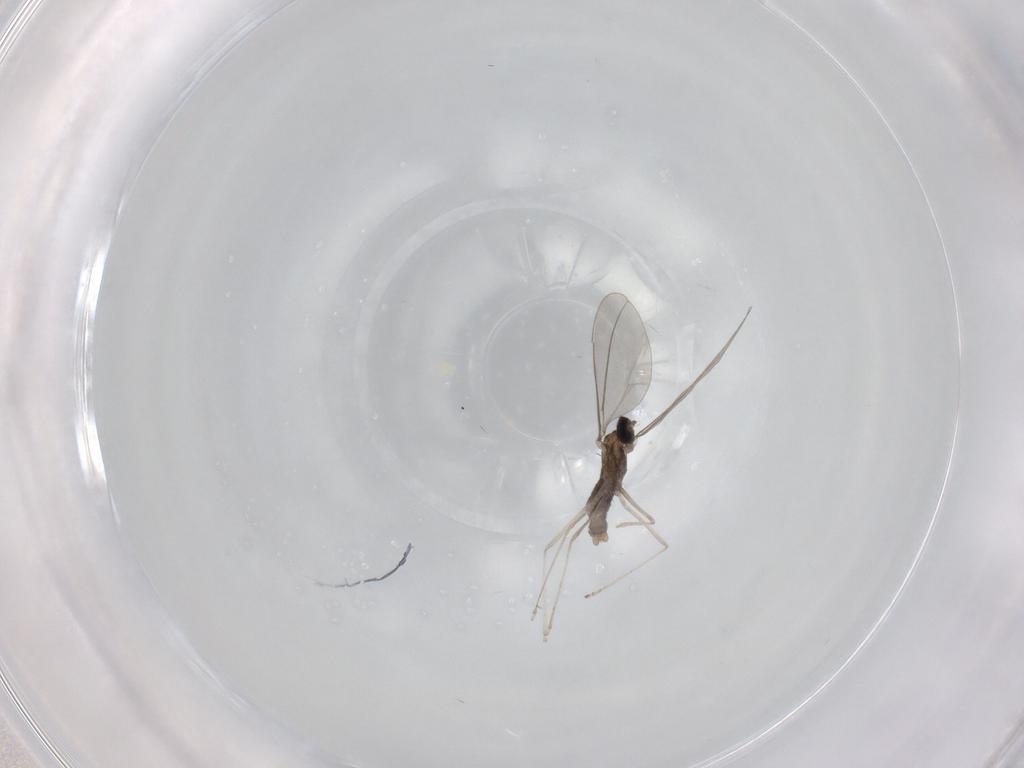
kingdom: Animalia
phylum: Arthropoda
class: Insecta
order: Diptera
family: Cecidomyiidae
